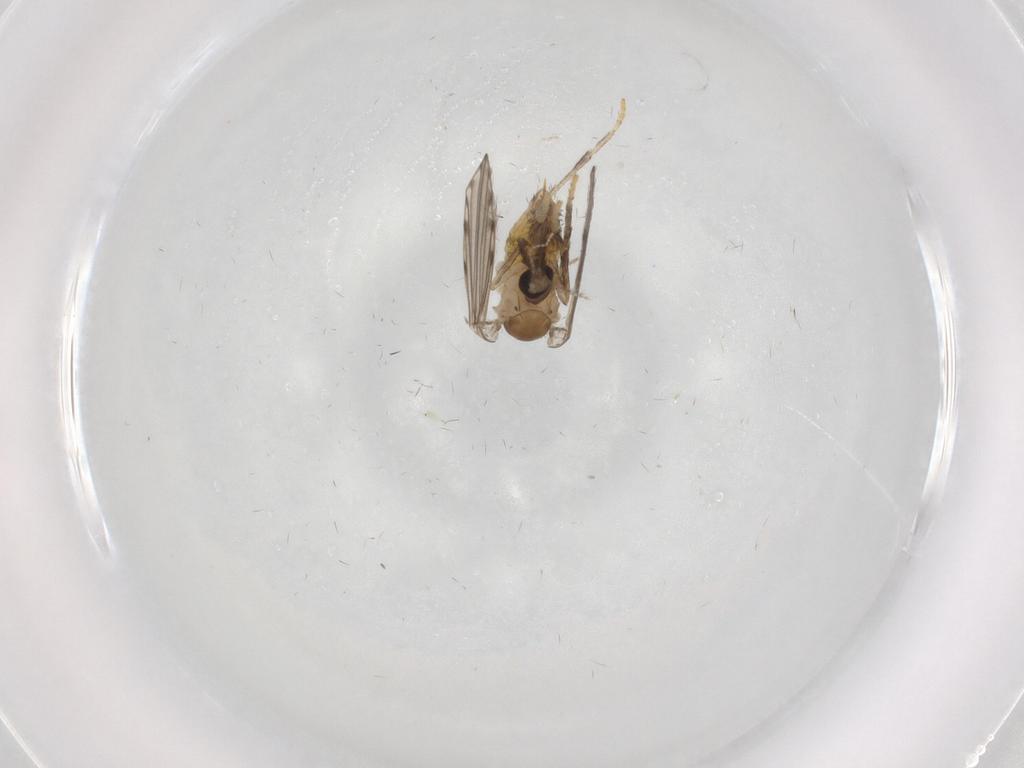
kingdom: Animalia
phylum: Arthropoda
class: Insecta
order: Diptera
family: Psychodidae
